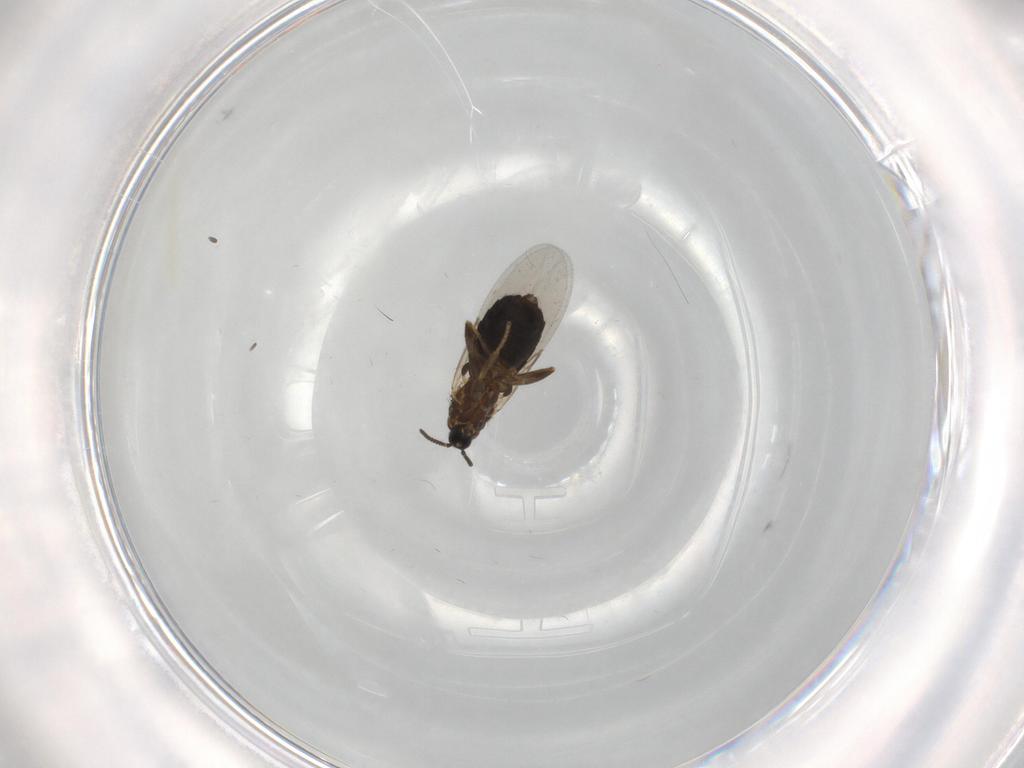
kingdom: Animalia
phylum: Arthropoda
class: Insecta
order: Diptera
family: Scatopsidae
